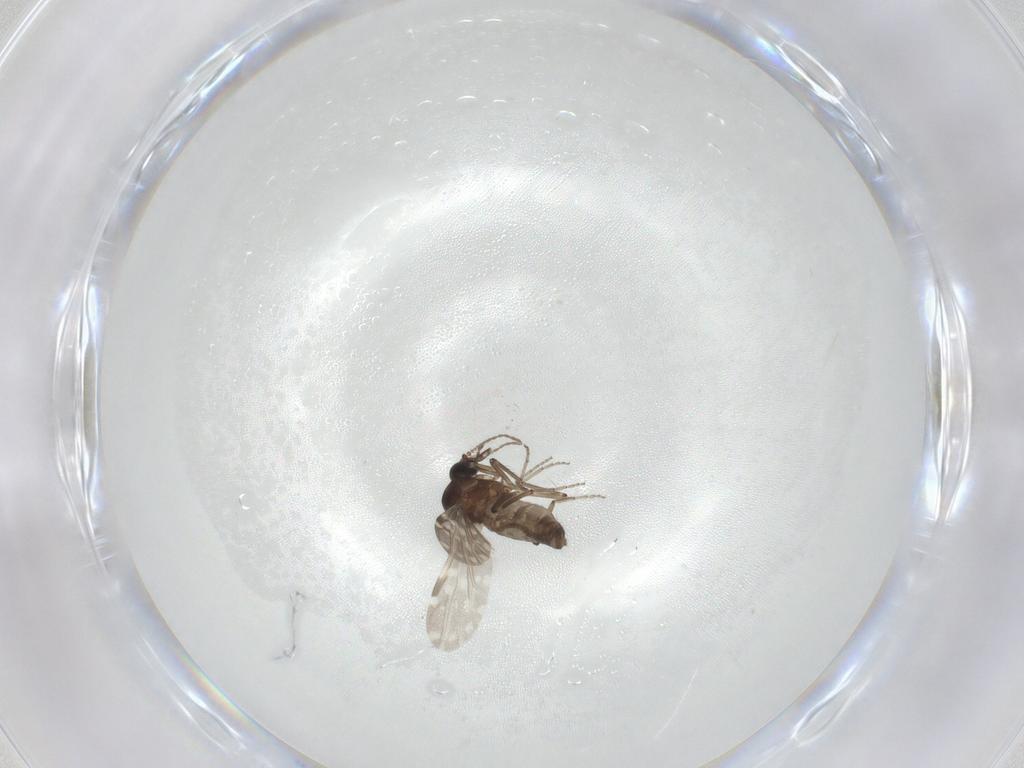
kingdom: Animalia
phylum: Arthropoda
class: Insecta
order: Diptera
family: Ceratopogonidae
